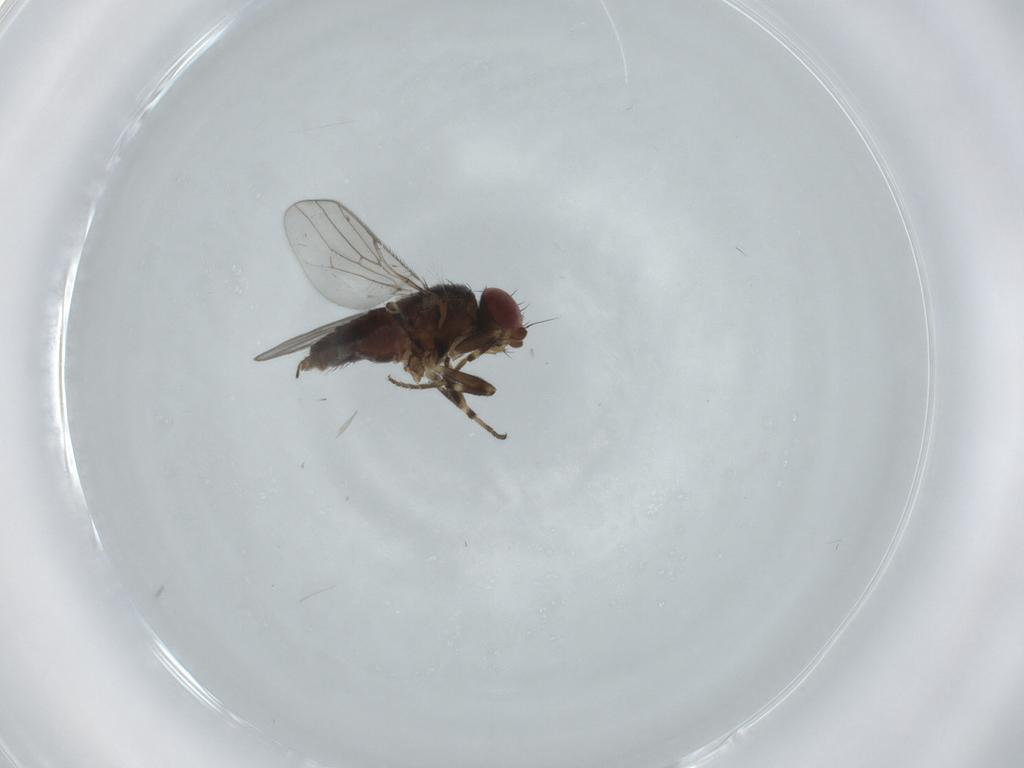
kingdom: Animalia
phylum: Arthropoda
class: Insecta
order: Diptera
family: Chloropidae
